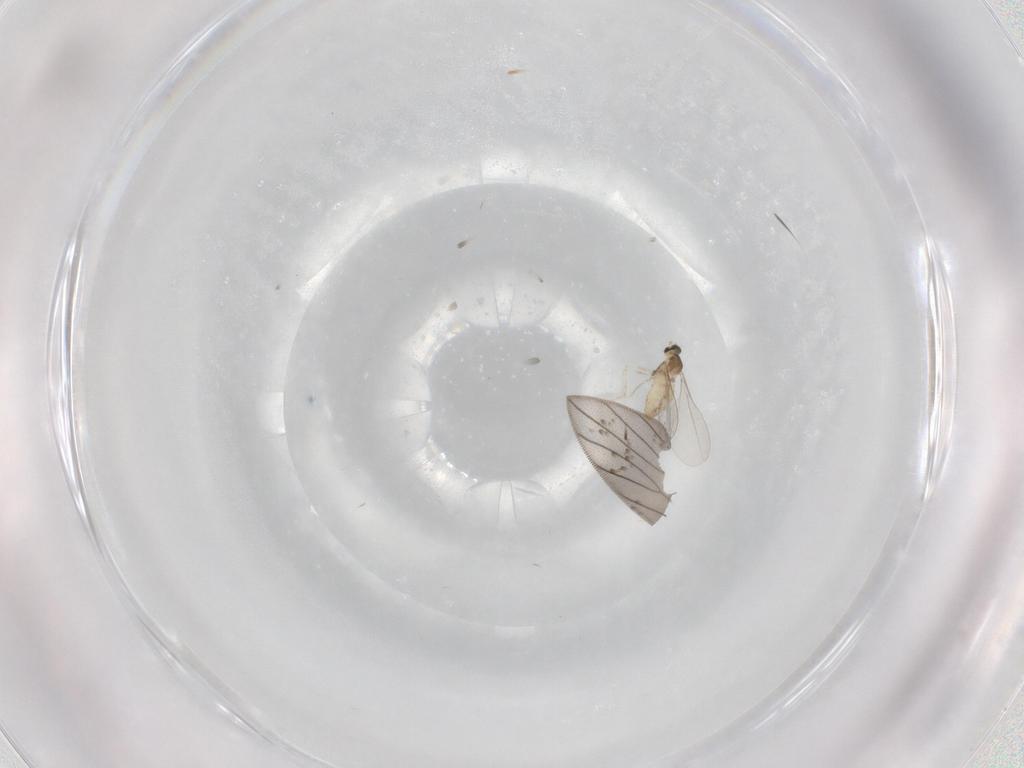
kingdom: Animalia
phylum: Arthropoda
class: Insecta
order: Diptera
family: Cecidomyiidae
